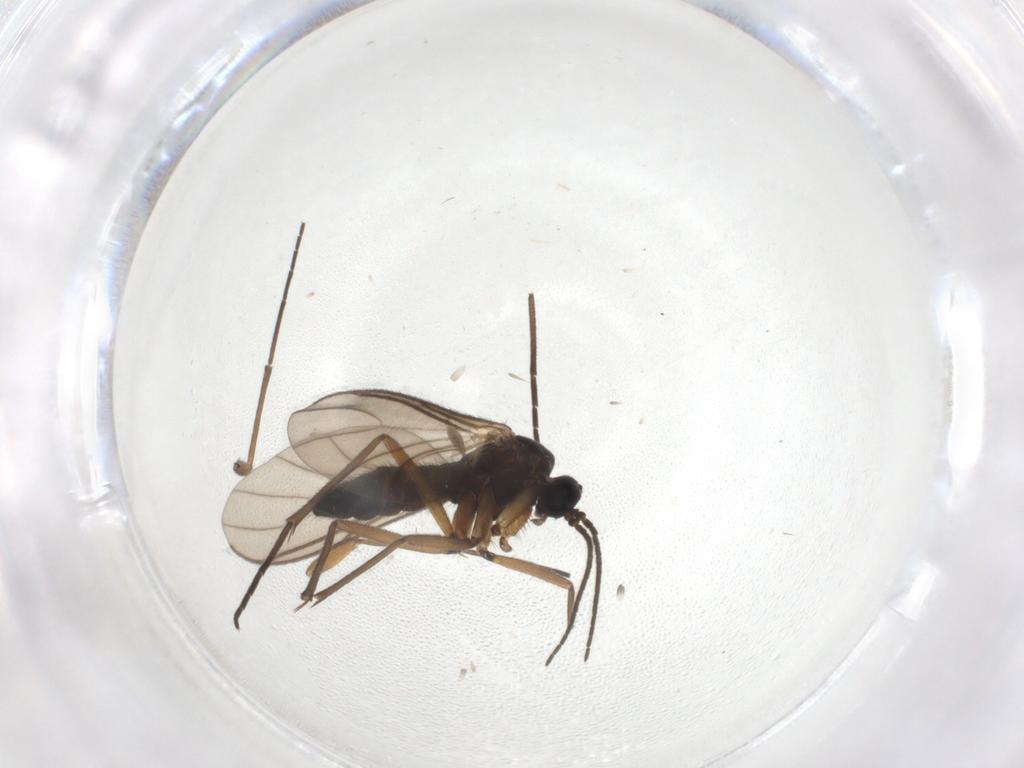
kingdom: Animalia
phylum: Arthropoda
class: Insecta
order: Diptera
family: Sciaridae
